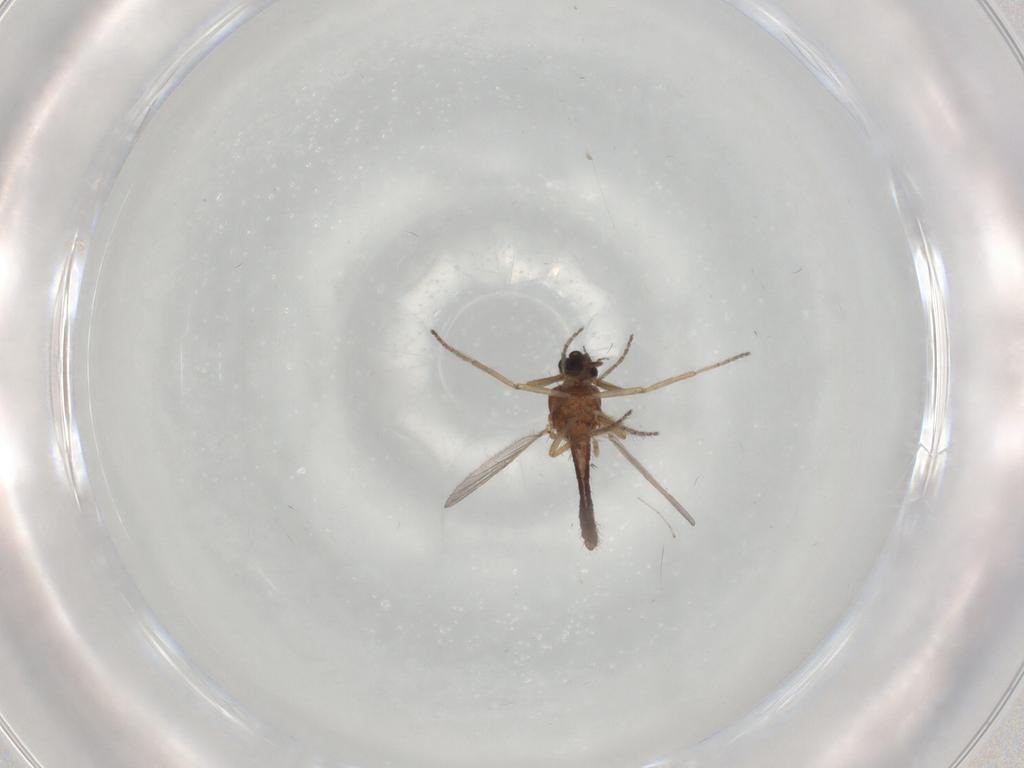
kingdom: Animalia
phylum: Arthropoda
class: Insecta
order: Diptera
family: Ceratopogonidae
